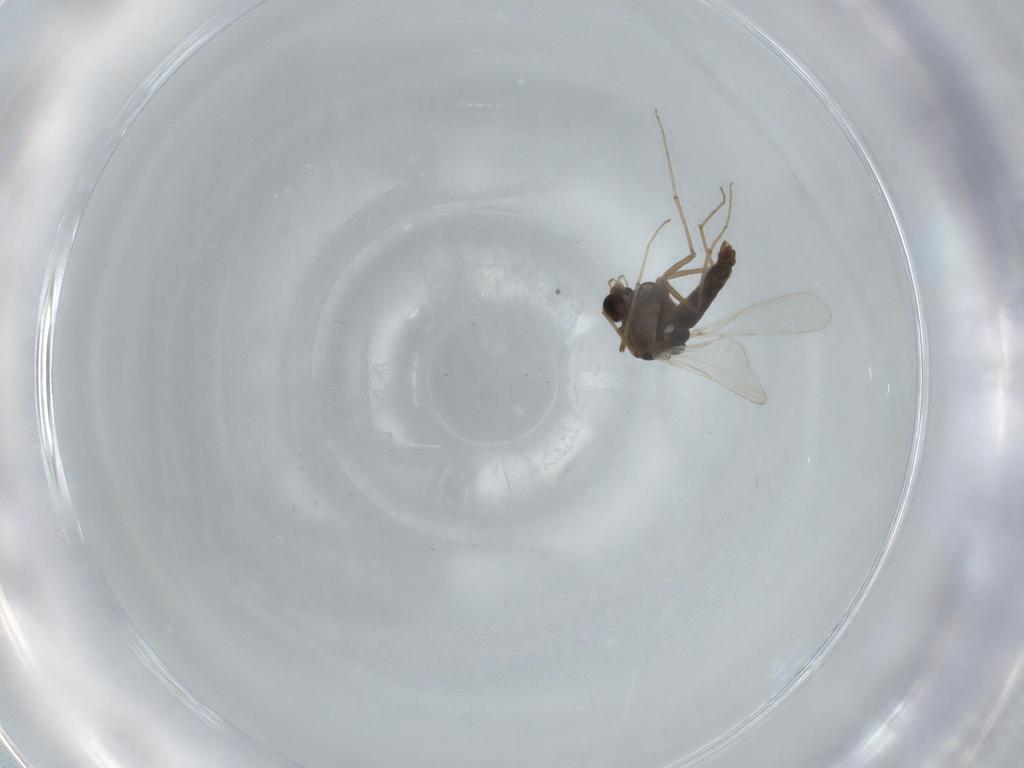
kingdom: Animalia
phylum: Arthropoda
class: Insecta
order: Diptera
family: Chironomidae
